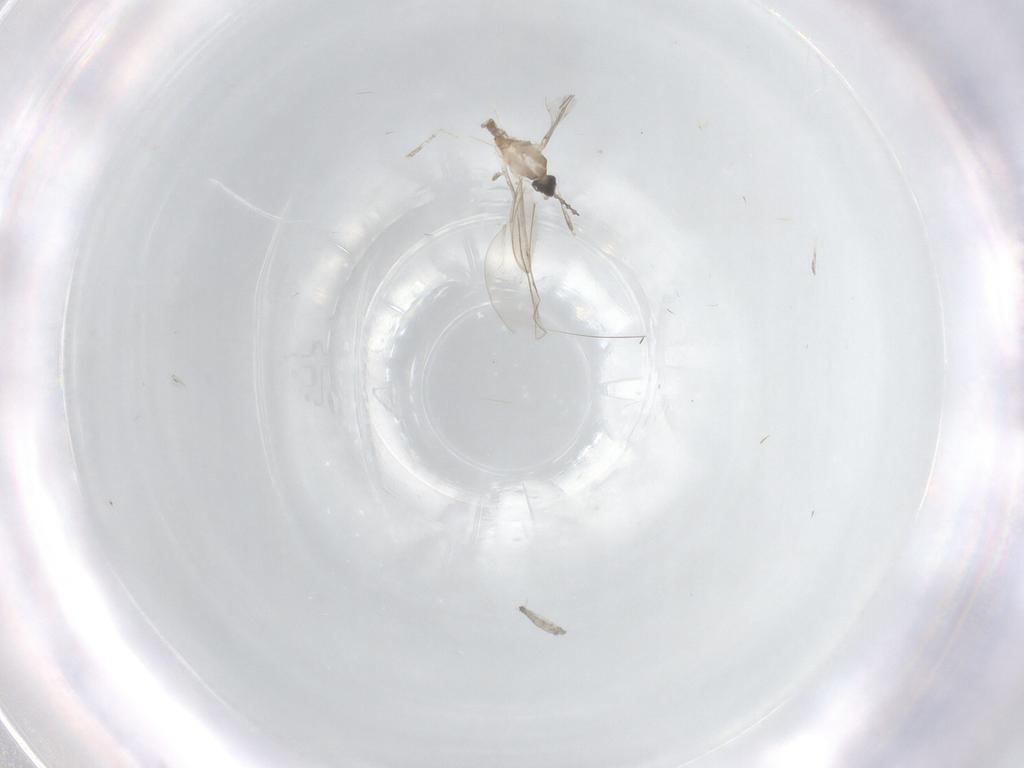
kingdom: Animalia
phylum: Arthropoda
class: Insecta
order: Diptera
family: Cecidomyiidae
